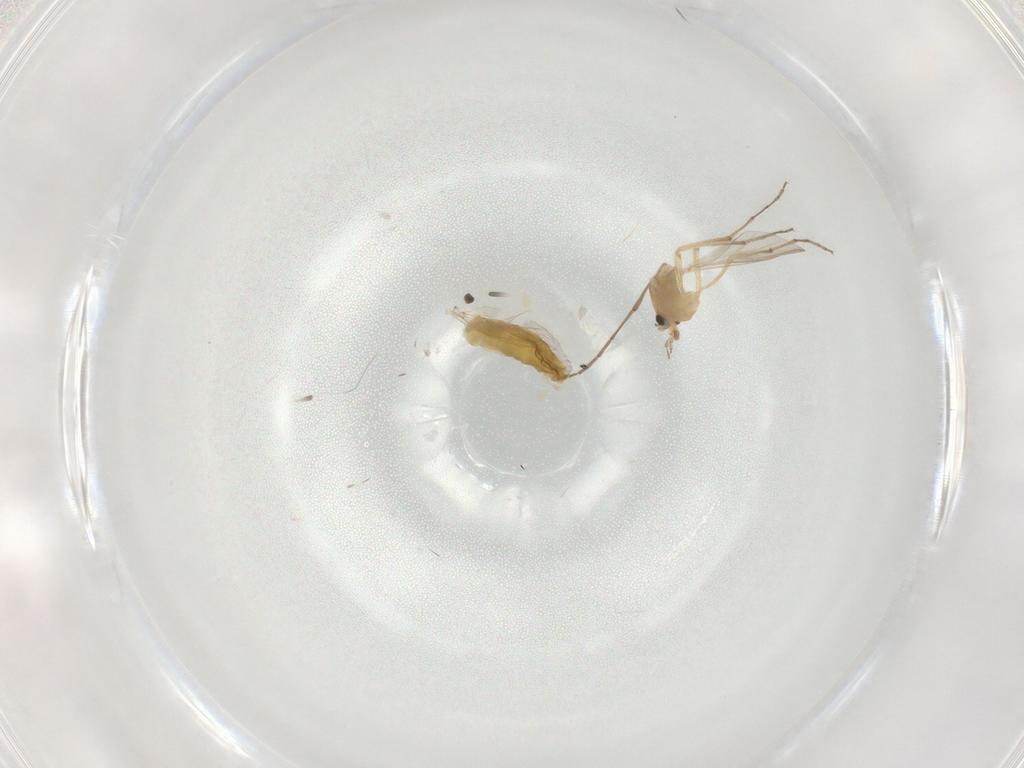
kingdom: Animalia
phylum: Arthropoda
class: Insecta
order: Diptera
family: Chironomidae
